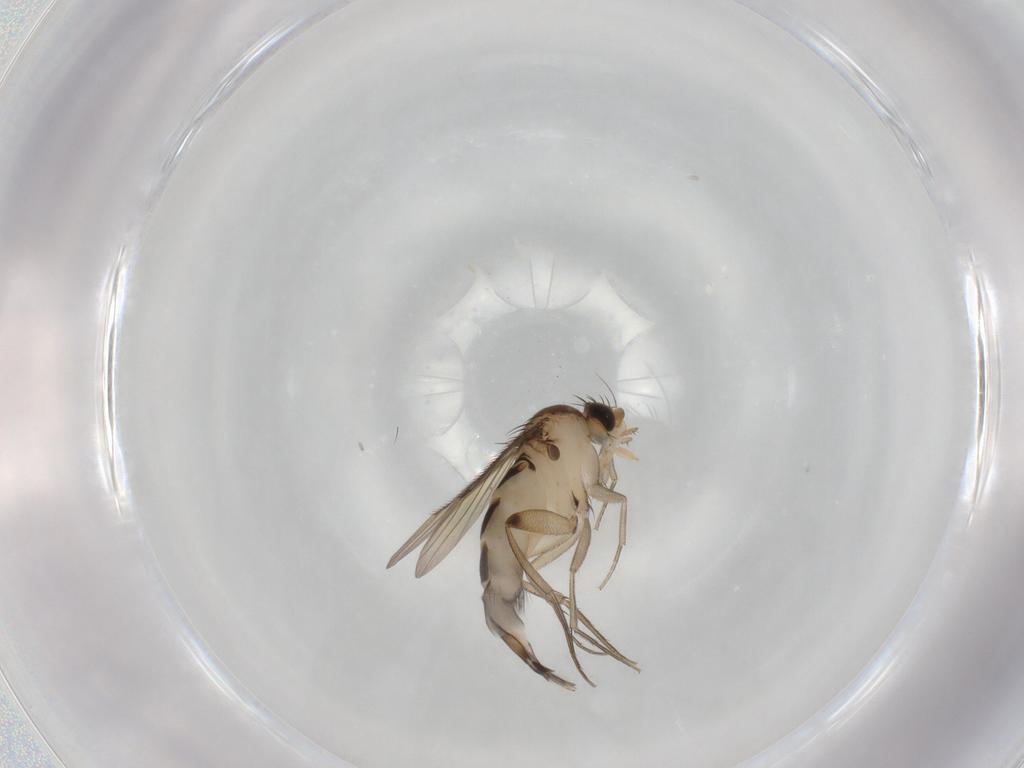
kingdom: Animalia
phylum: Arthropoda
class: Insecta
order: Diptera
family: Phoridae
